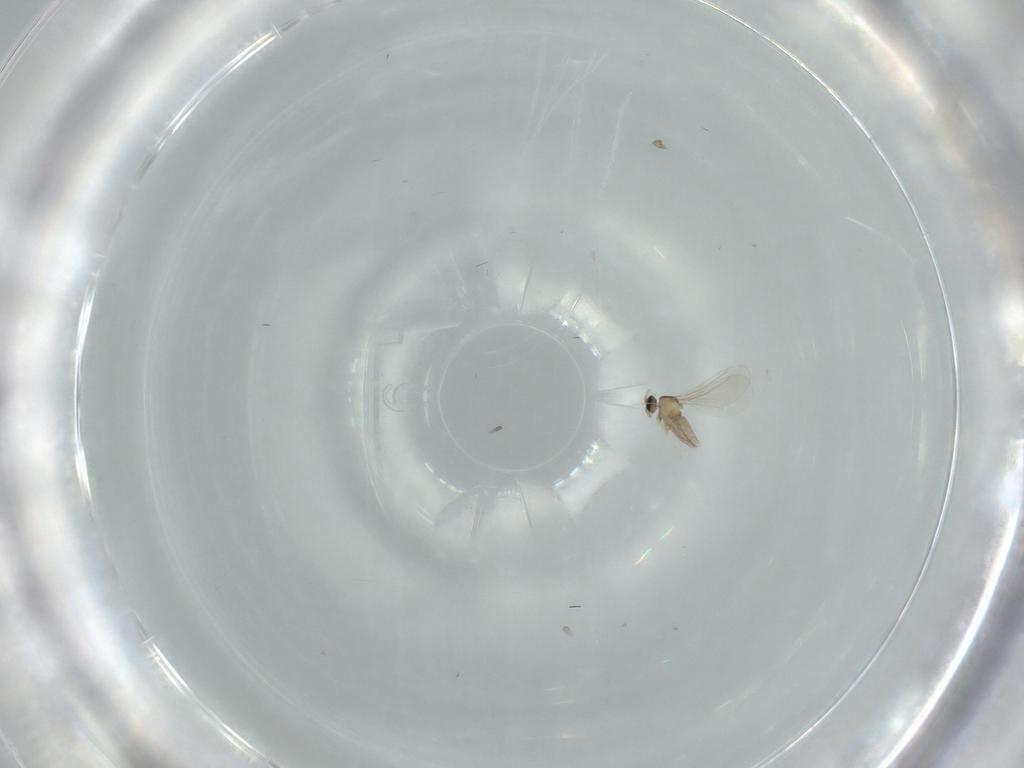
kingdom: Animalia
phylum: Arthropoda
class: Insecta
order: Diptera
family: Cecidomyiidae
